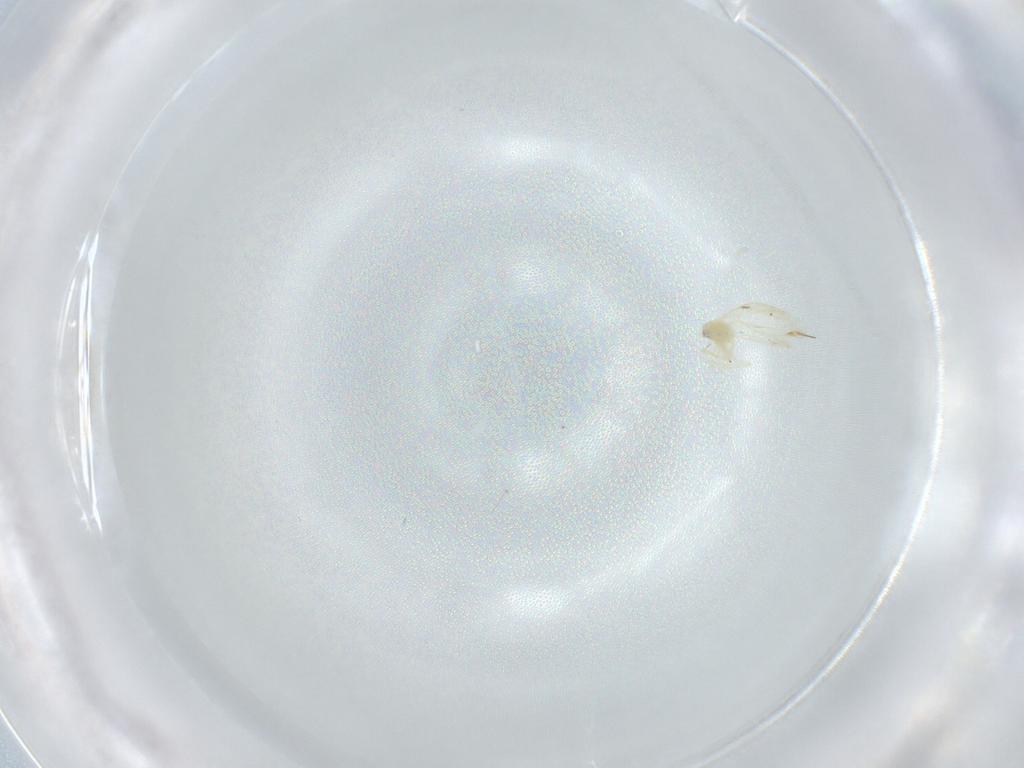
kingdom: Animalia
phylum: Arthropoda
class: Insecta
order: Hemiptera
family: Cicadellidae
